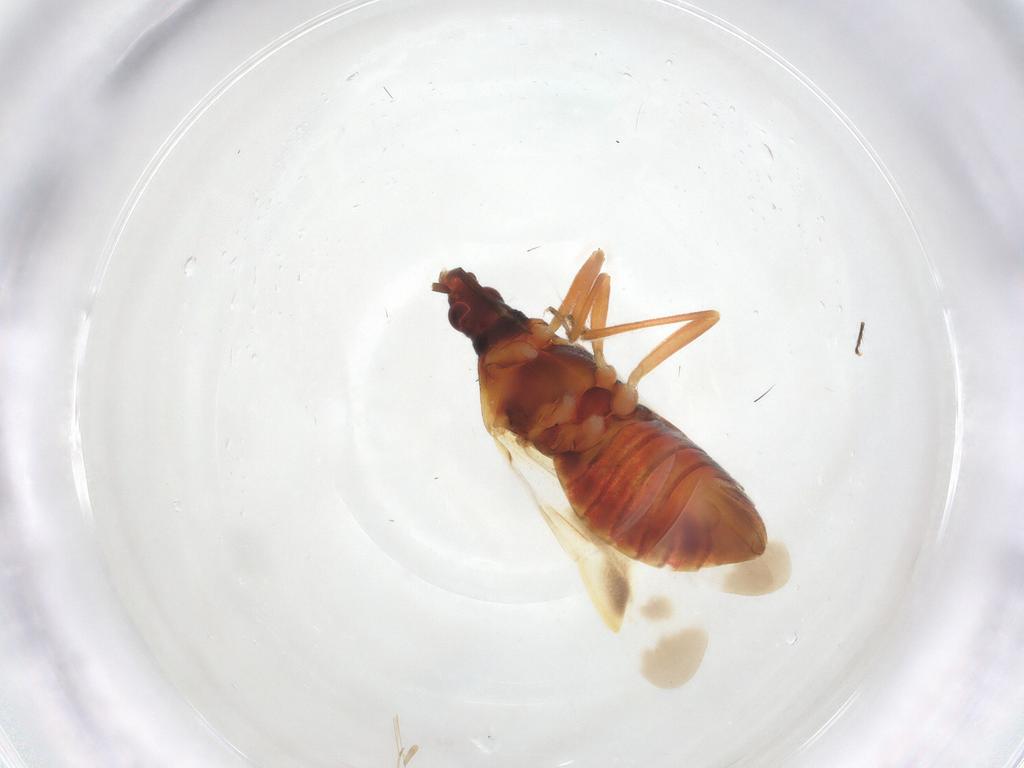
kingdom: Animalia
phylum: Arthropoda
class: Insecta
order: Hemiptera
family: Anthocoridae
